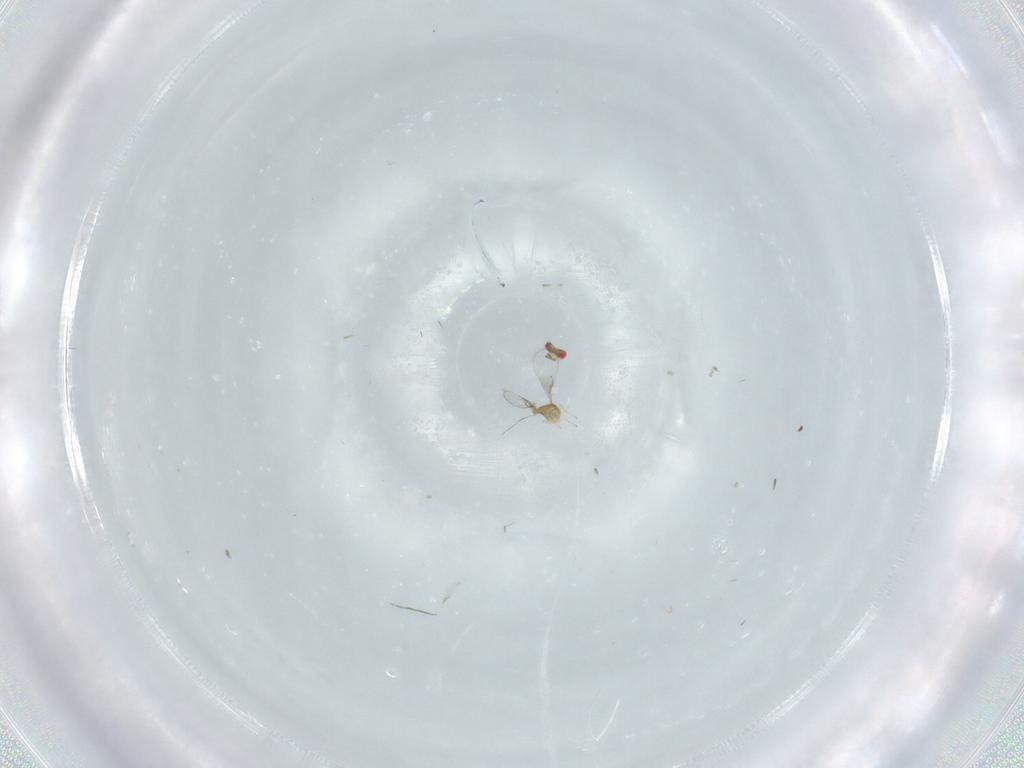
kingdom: Animalia
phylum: Arthropoda
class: Insecta
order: Hymenoptera
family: Trichogrammatidae
